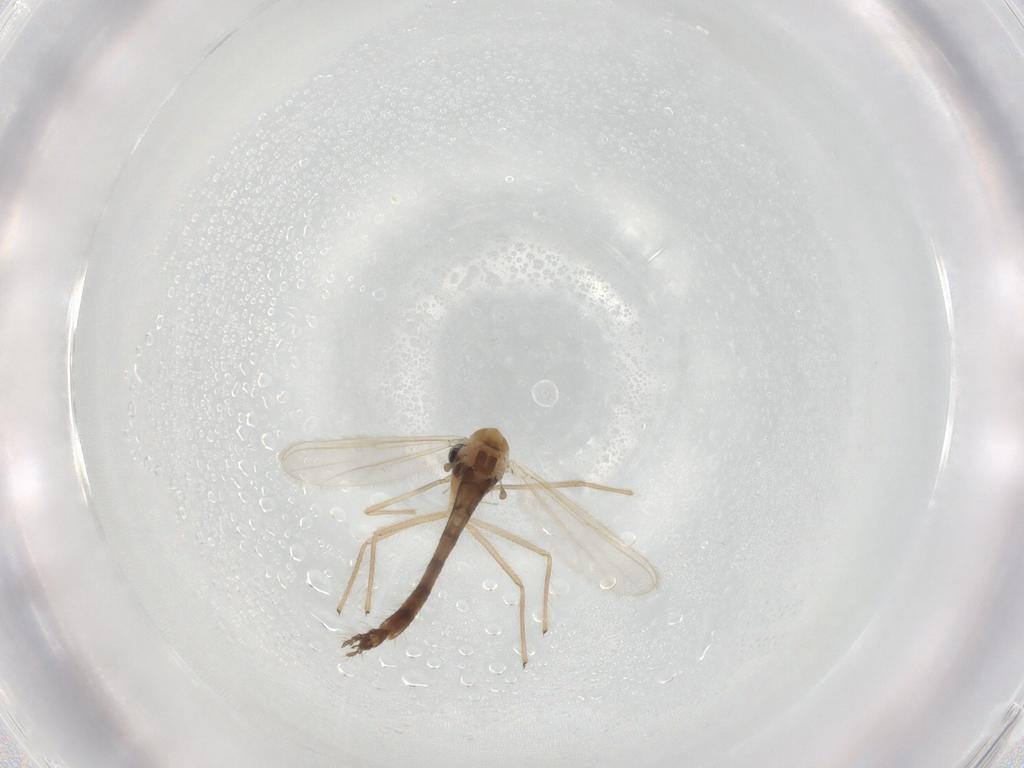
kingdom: Animalia
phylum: Arthropoda
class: Insecta
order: Diptera
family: Chironomidae
